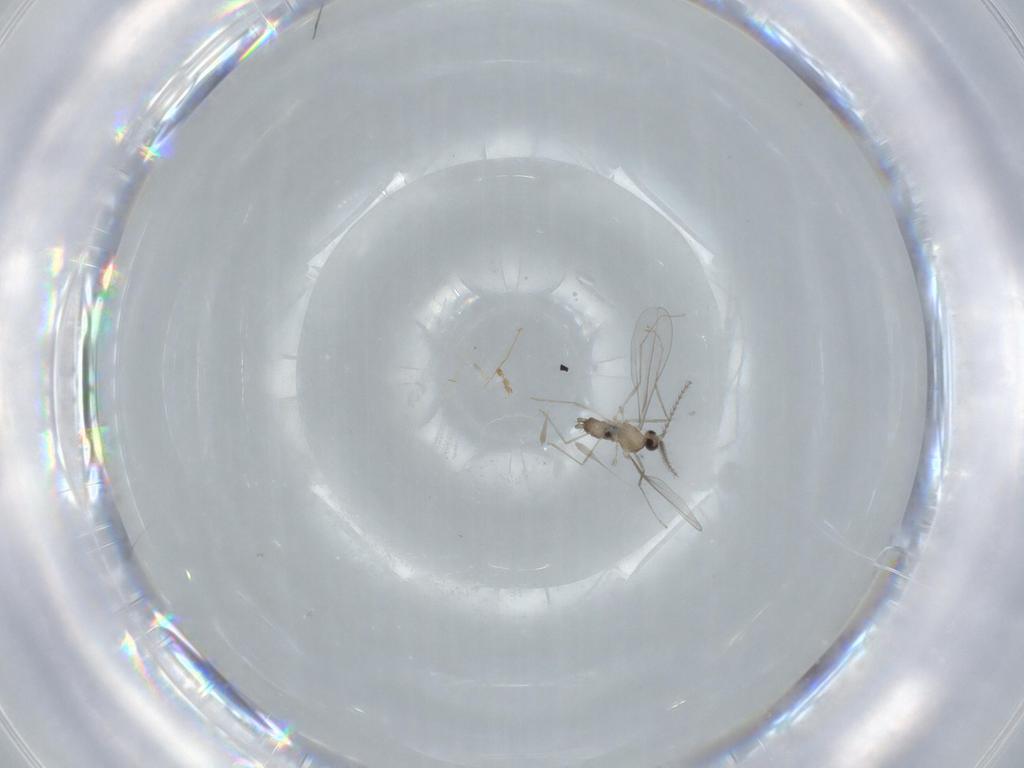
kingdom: Animalia
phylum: Arthropoda
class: Insecta
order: Diptera
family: Cecidomyiidae
